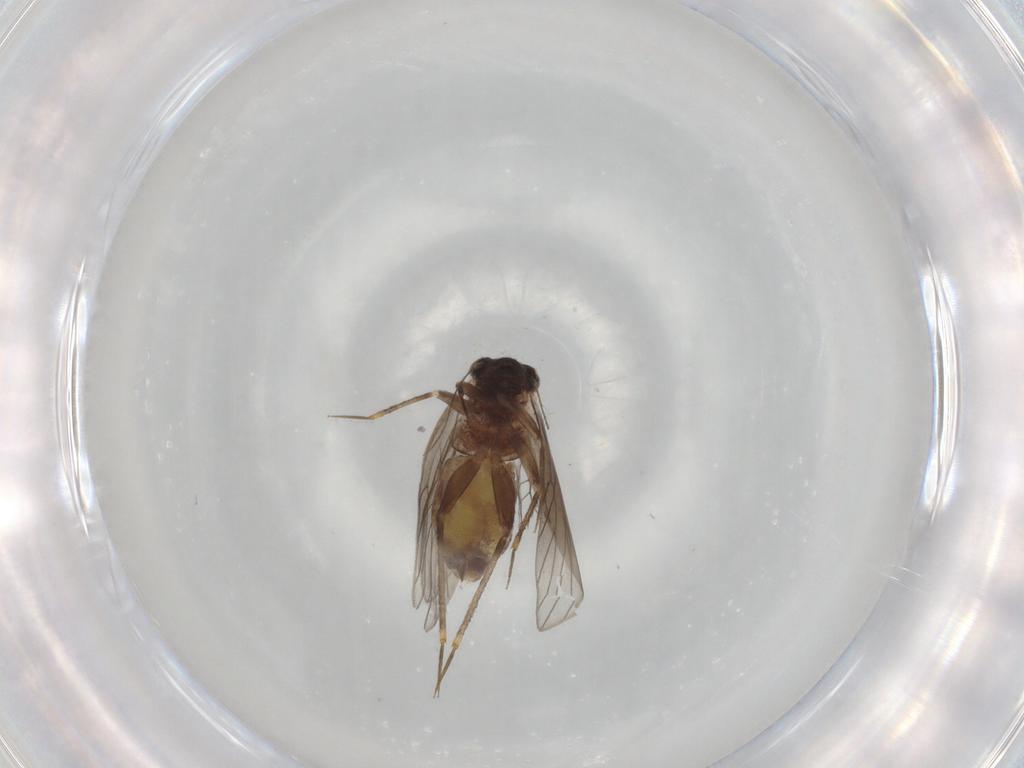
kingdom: Animalia
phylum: Arthropoda
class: Insecta
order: Psocodea
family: Lepidopsocidae
